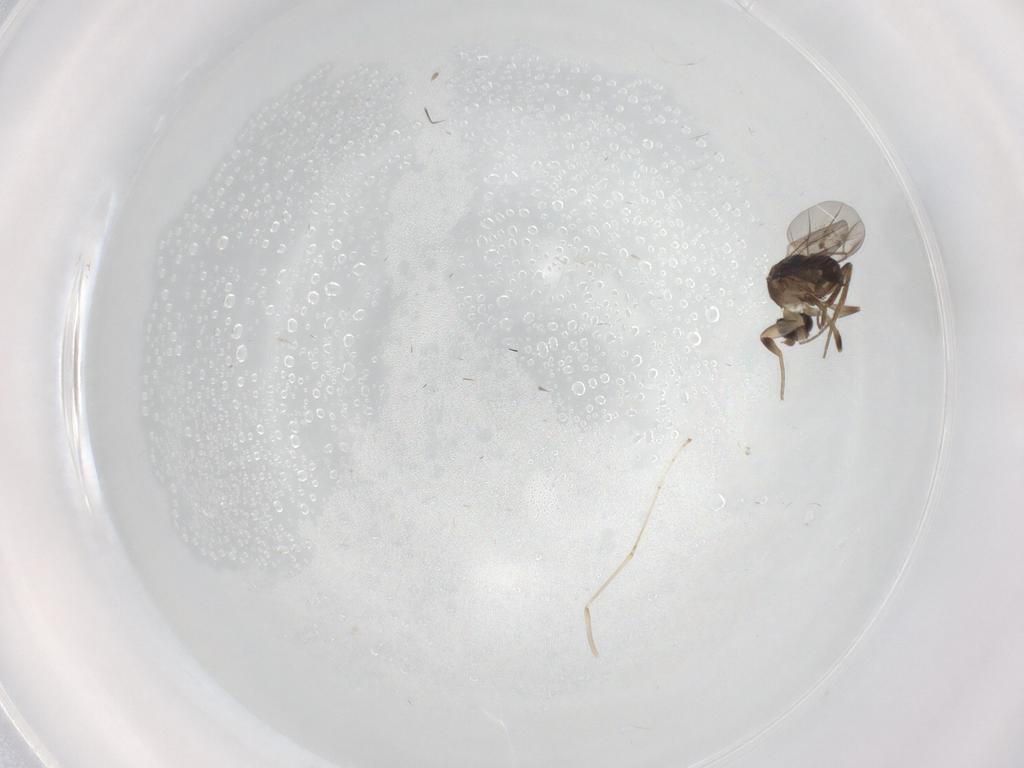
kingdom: Animalia
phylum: Arthropoda
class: Insecta
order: Diptera
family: Phoridae
